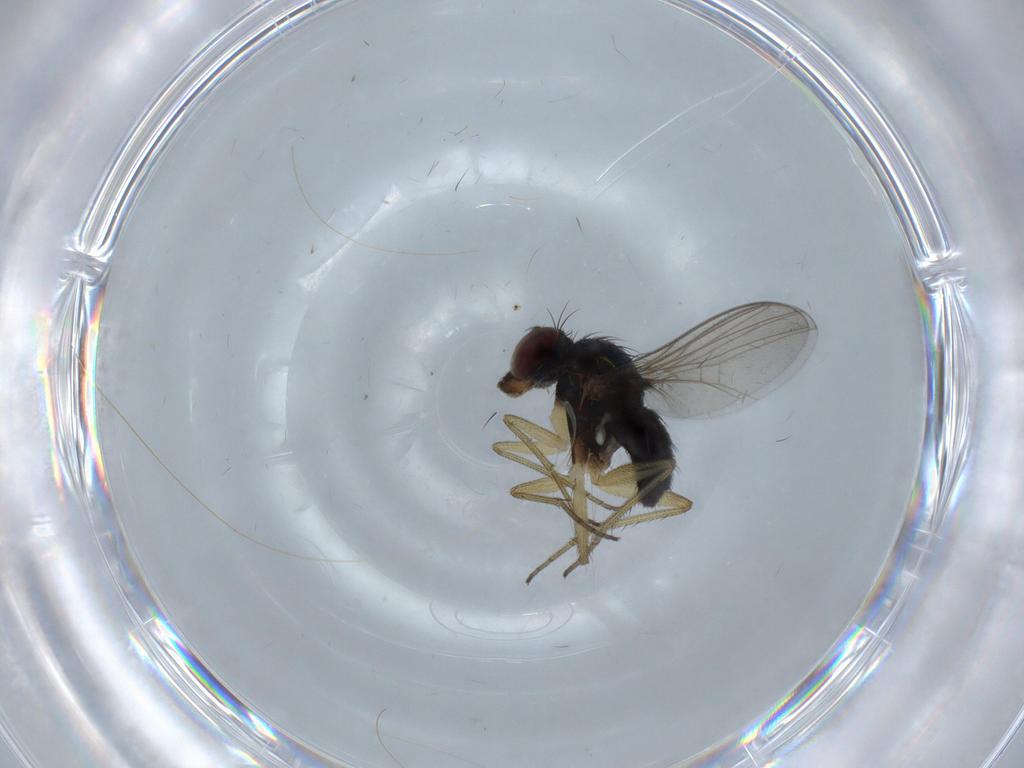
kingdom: Animalia
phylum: Arthropoda
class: Insecta
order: Diptera
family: Dolichopodidae
